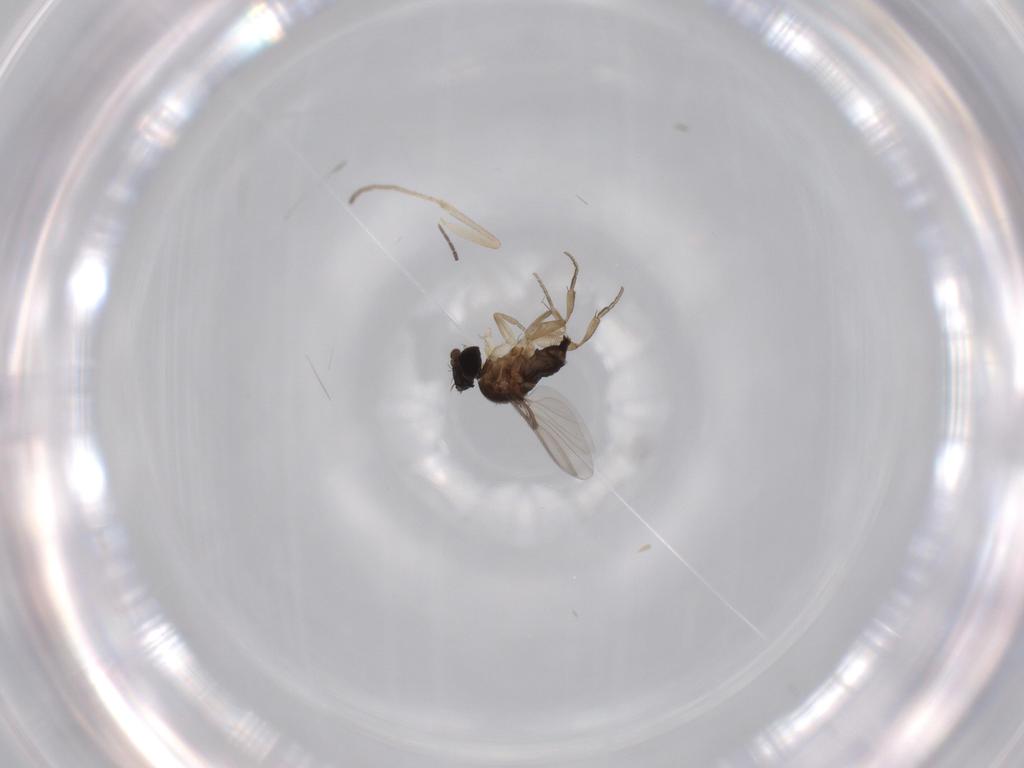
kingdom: Animalia
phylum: Arthropoda
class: Insecta
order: Diptera
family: Phoridae
